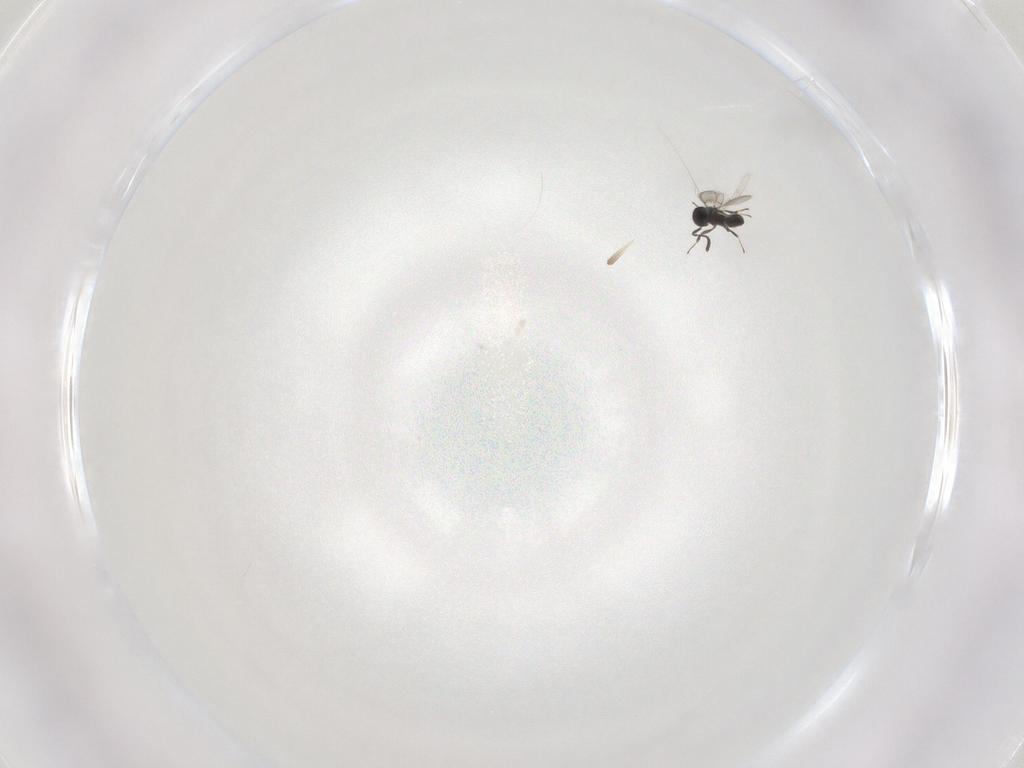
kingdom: Animalia
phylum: Arthropoda
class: Insecta
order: Hymenoptera
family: Scelionidae
